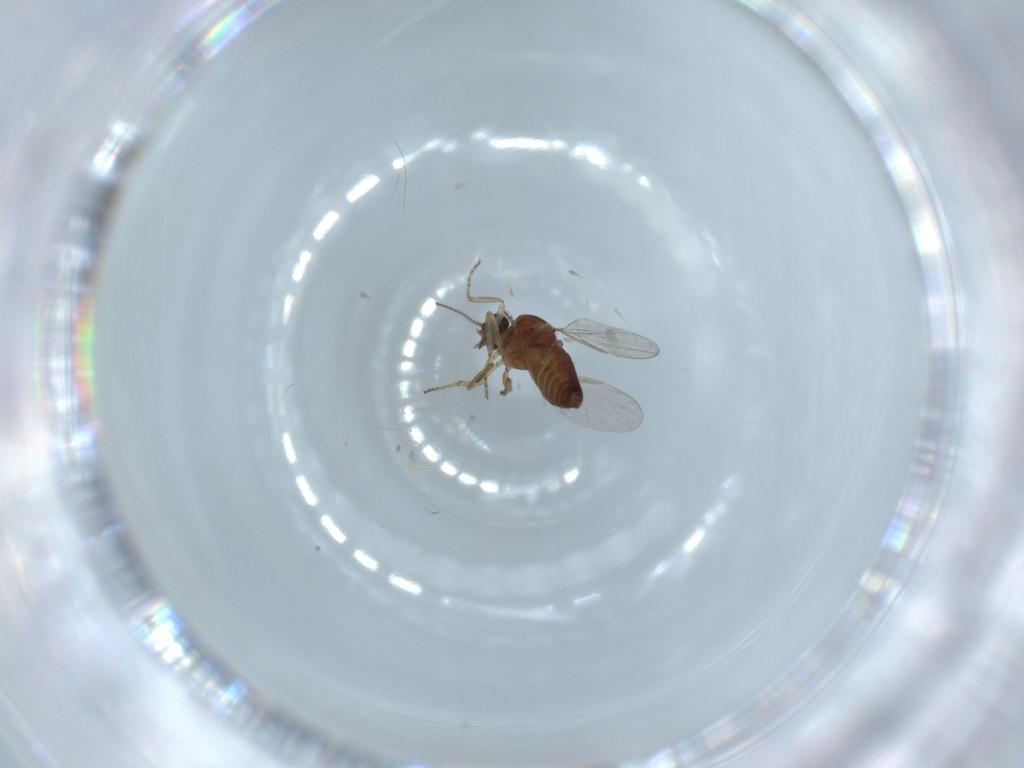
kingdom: Animalia
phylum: Arthropoda
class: Insecta
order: Diptera
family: Ceratopogonidae
